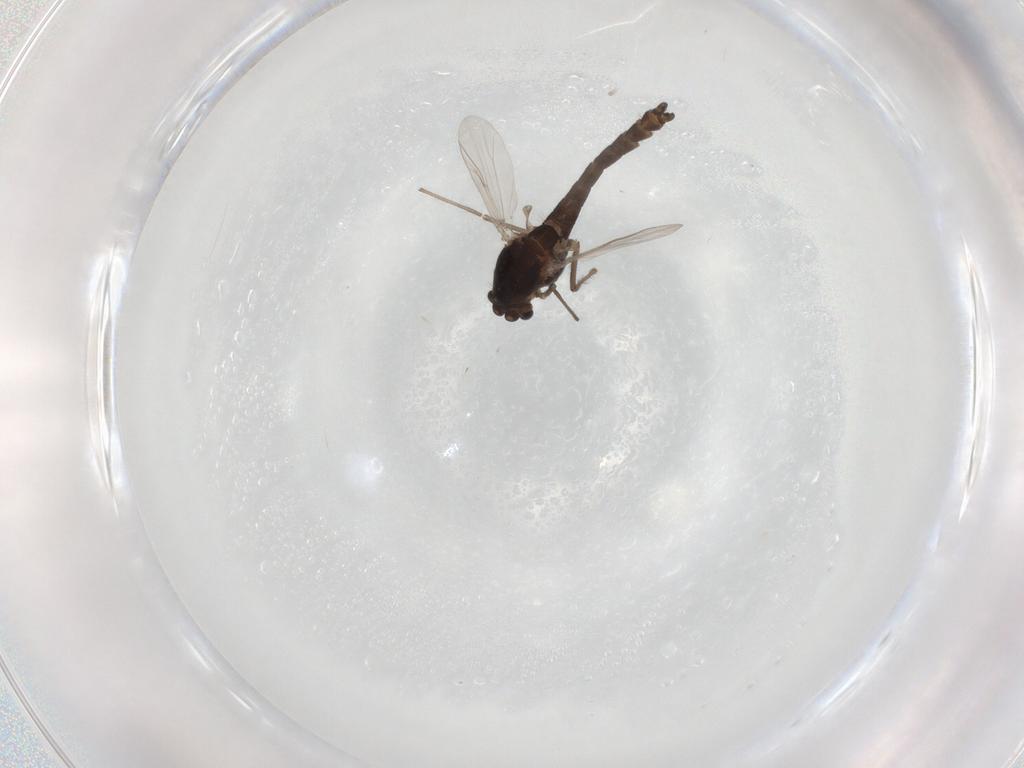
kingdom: Animalia
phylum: Arthropoda
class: Insecta
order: Diptera
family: Chironomidae
